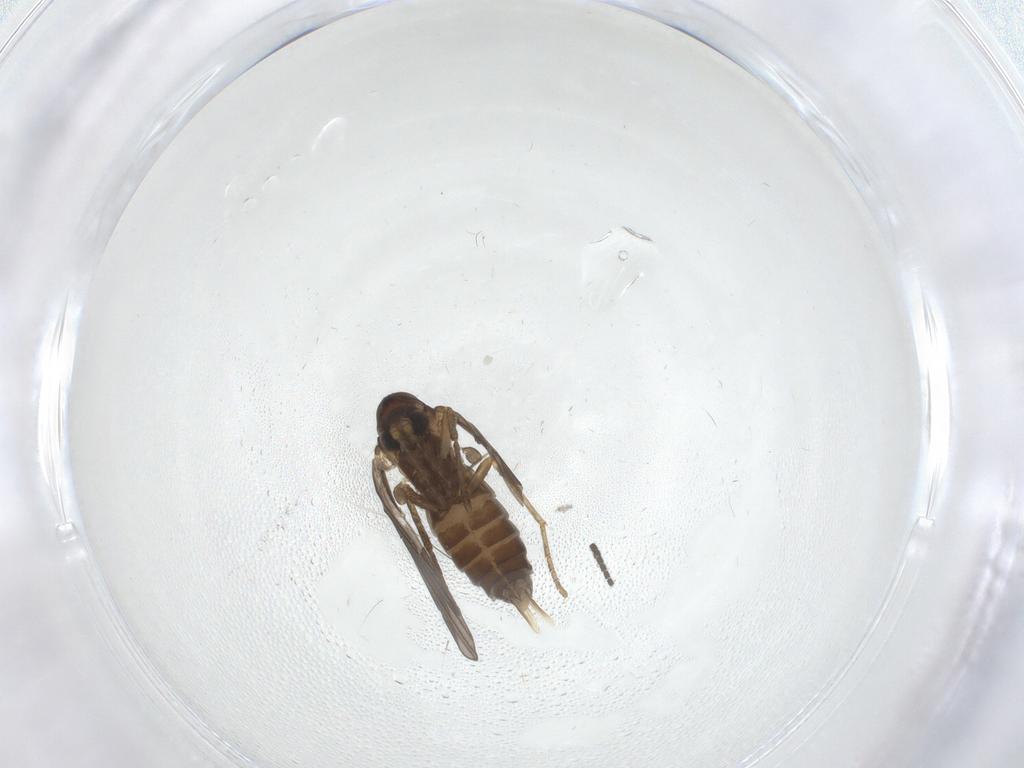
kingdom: Animalia
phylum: Arthropoda
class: Insecta
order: Diptera
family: Psychodidae
